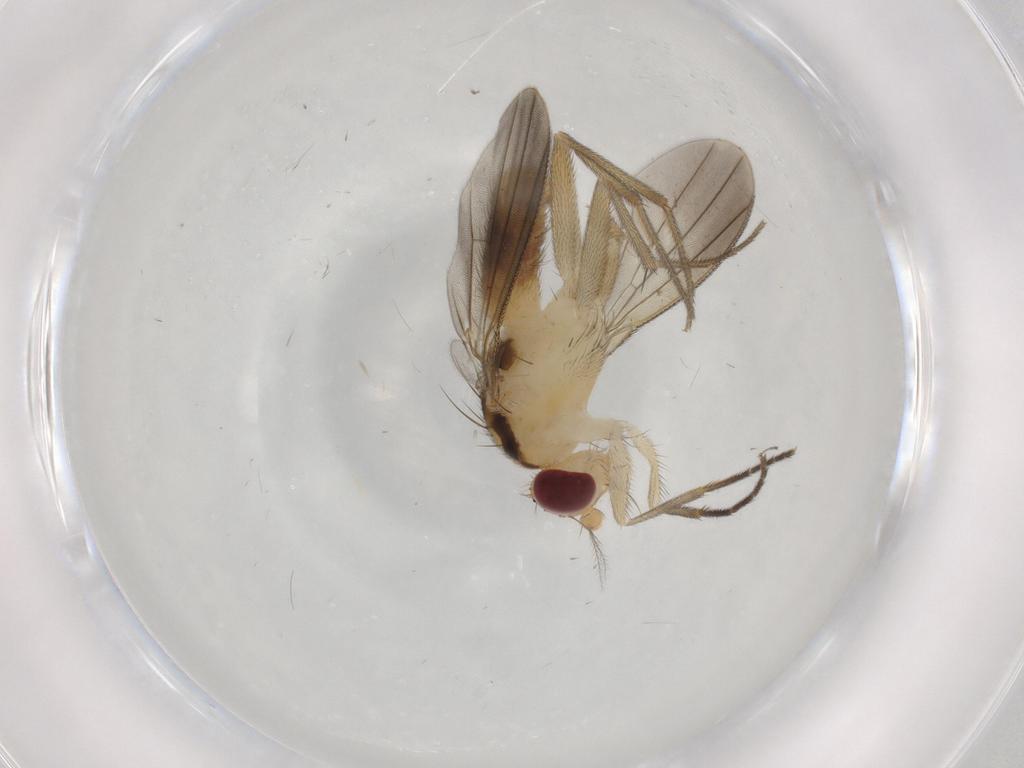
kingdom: Animalia
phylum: Arthropoda
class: Insecta
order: Diptera
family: Clusiidae
